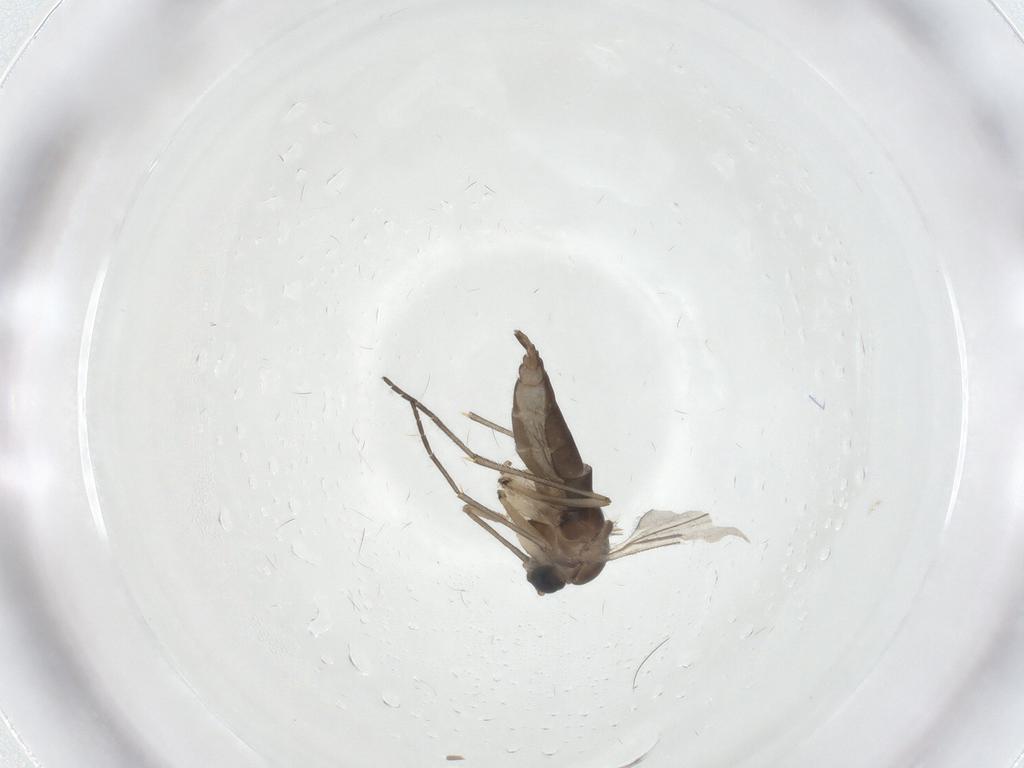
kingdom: Animalia
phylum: Arthropoda
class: Insecta
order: Diptera
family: Sciaridae
